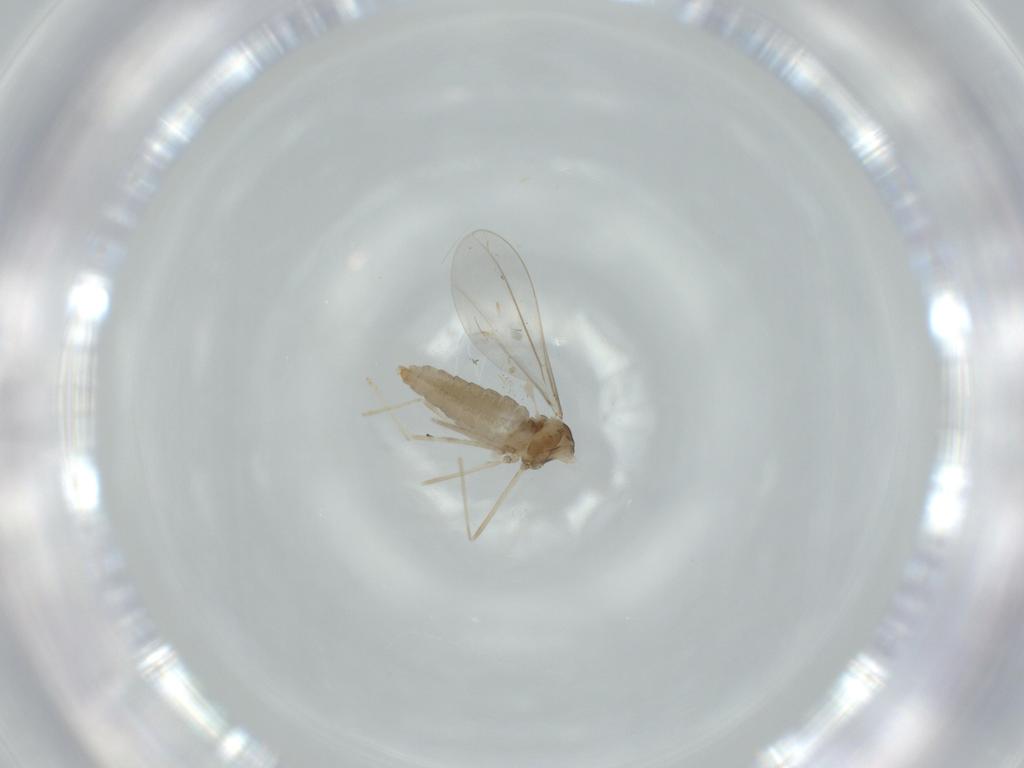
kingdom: Animalia
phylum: Arthropoda
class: Insecta
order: Diptera
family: Cecidomyiidae
